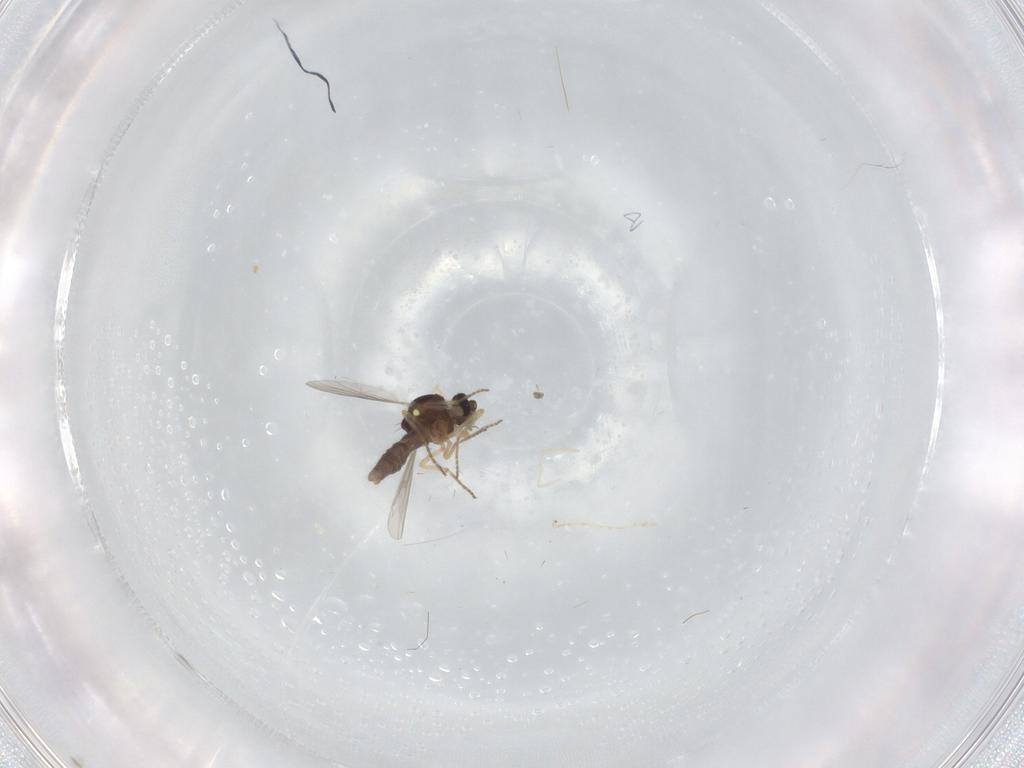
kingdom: Animalia
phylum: Arthropoda
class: Insecta
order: Diptera
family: Ceratopogonidae
